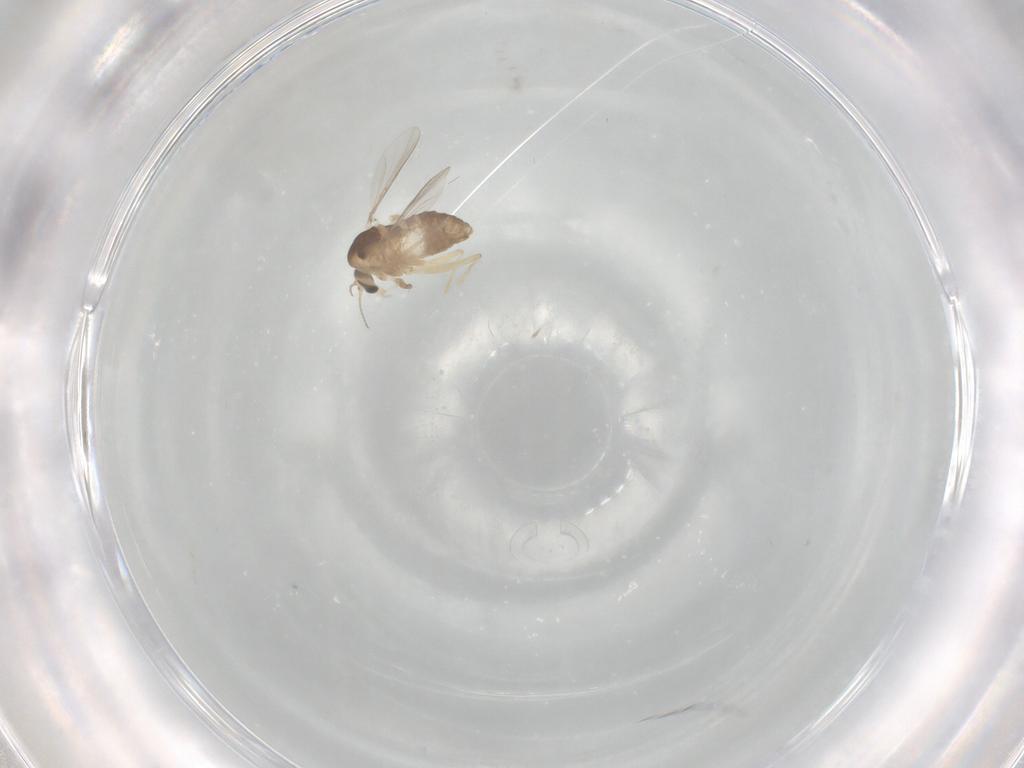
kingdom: Animalia
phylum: Arthropoda
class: Insecta
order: Diptera
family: Chironomidae
